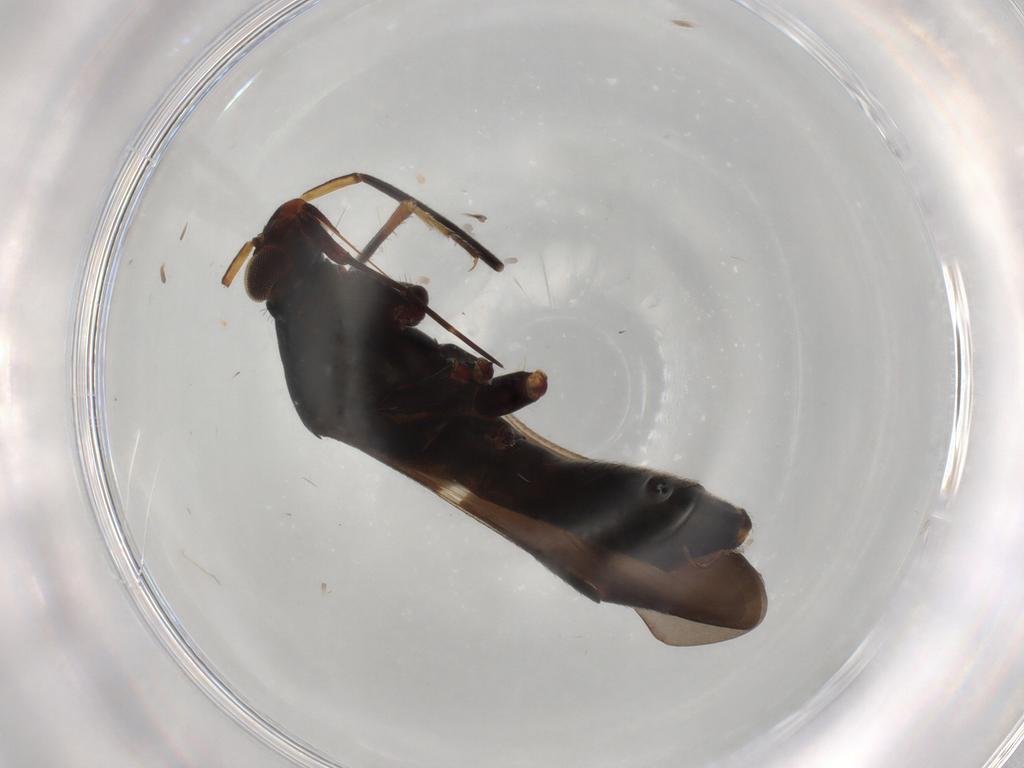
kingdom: Animalia
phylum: Arthropoda
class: Insecta
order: Hemiptera
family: Miridae
